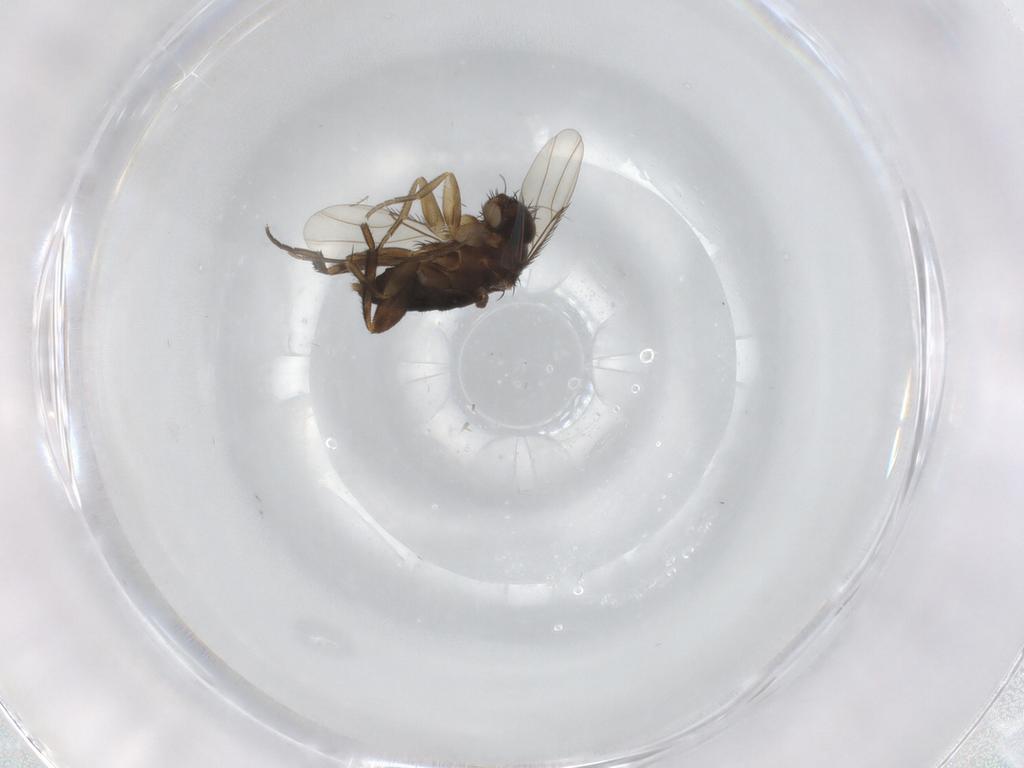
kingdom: Animalia
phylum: Arthropoda
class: Insecta
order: Diptera
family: Phoridae
